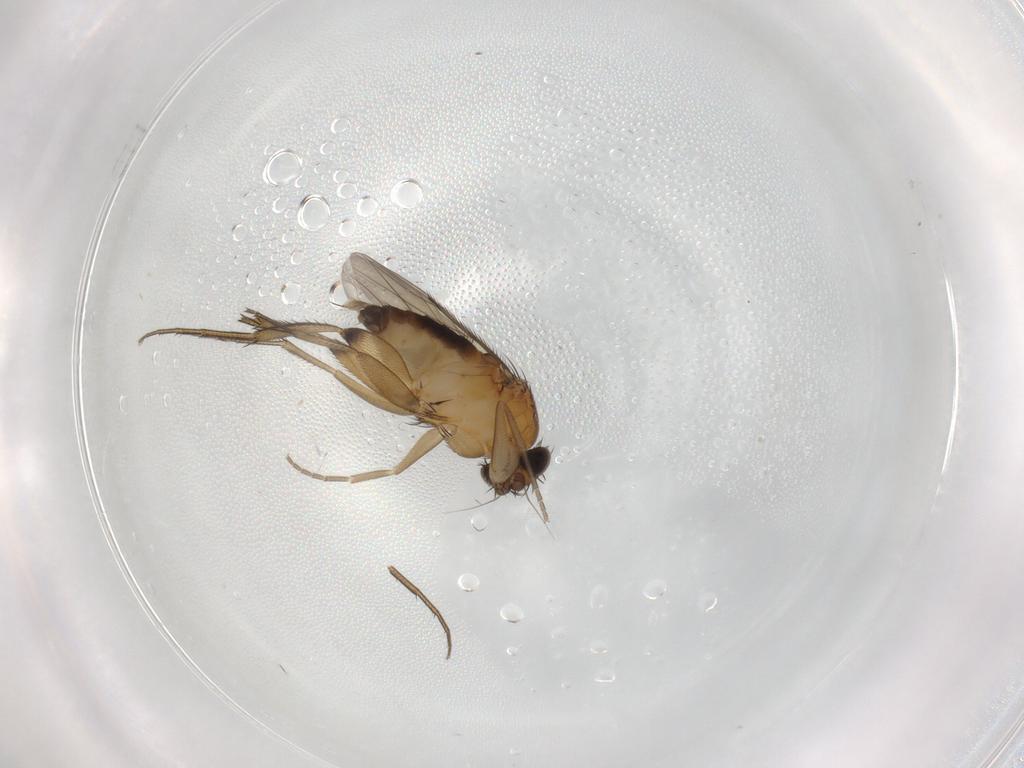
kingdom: Animalia
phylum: Arthropoda
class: Insecta
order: Diptera
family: Phoridae
